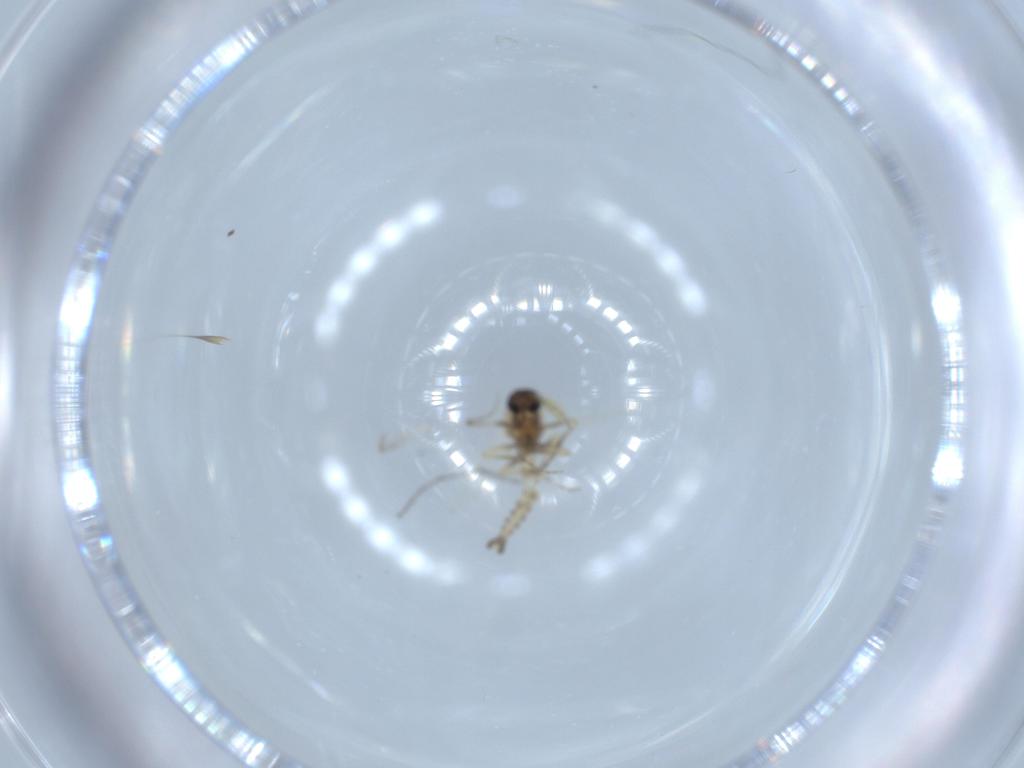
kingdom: Animalia
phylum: Arthropoda
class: Insecta
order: Diptera
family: Chironomidae
